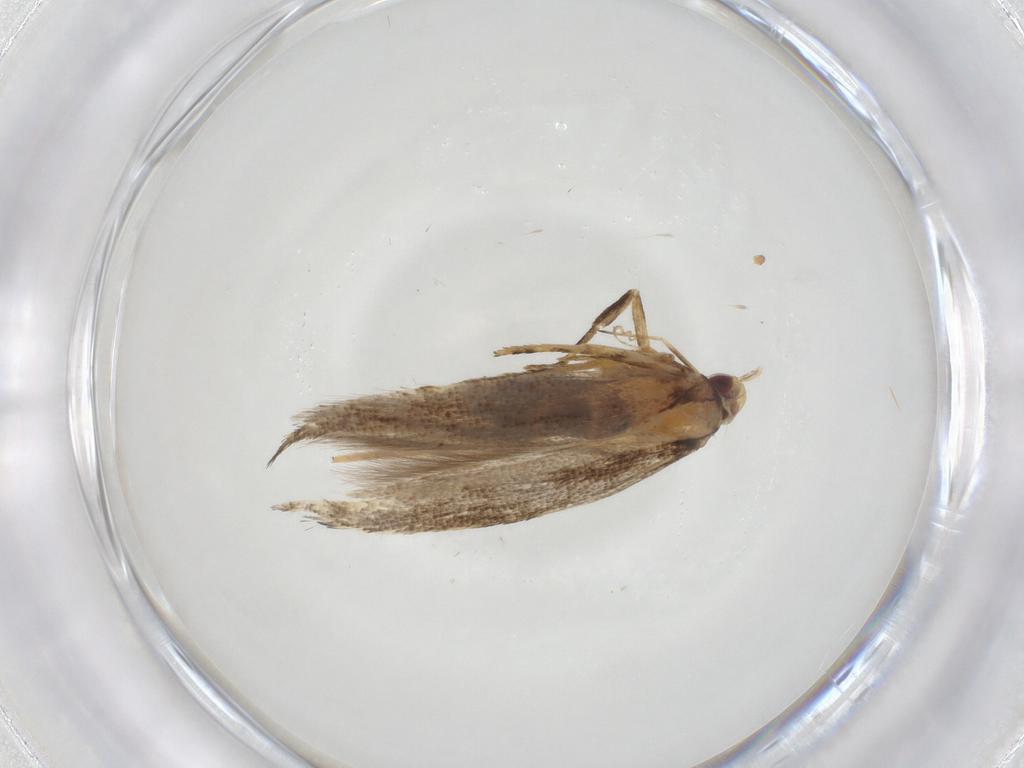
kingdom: Animalia
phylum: Arthropoda
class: Insecta
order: Lepidoptera
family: Cosmopterigidae
